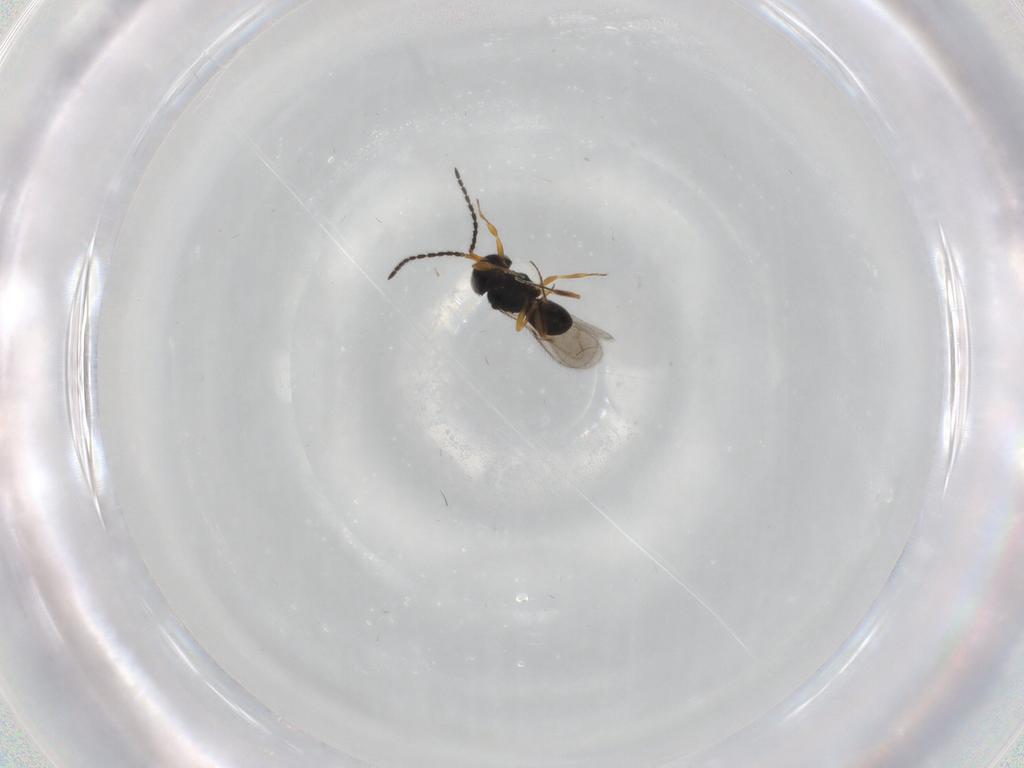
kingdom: Animalia
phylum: Arthropoda
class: Insecta
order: Hymenoptera
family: Scelionidae
